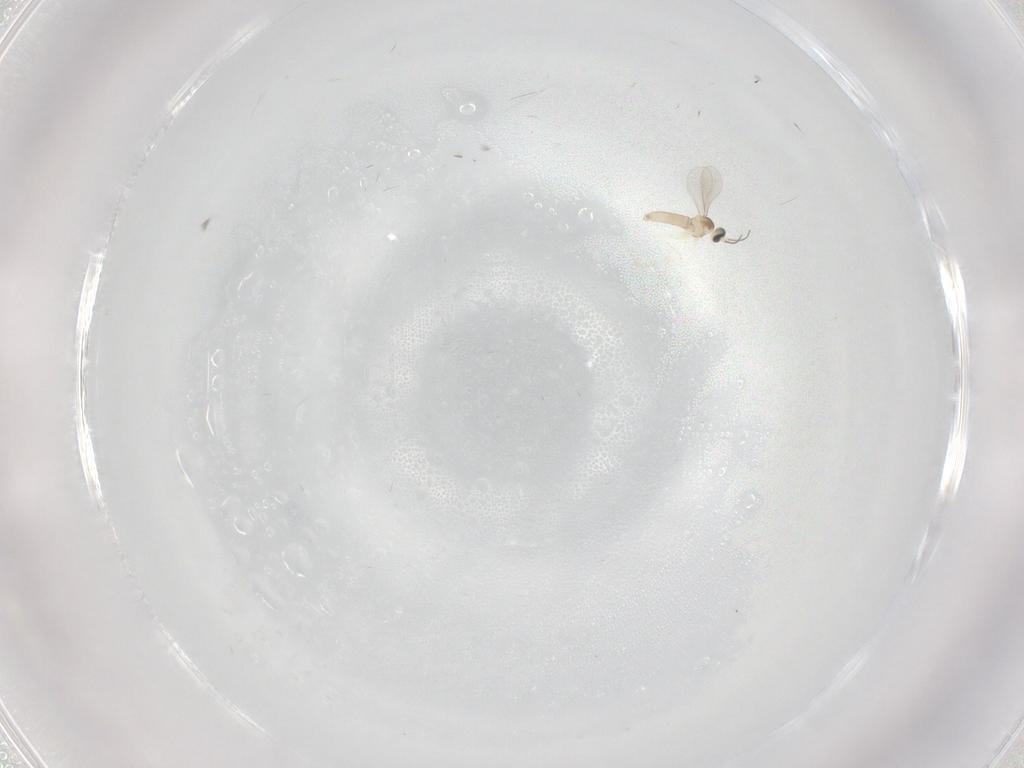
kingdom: Animalia
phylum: Arthropoda
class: Insecta
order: Diptera
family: Cecidomyiidae
